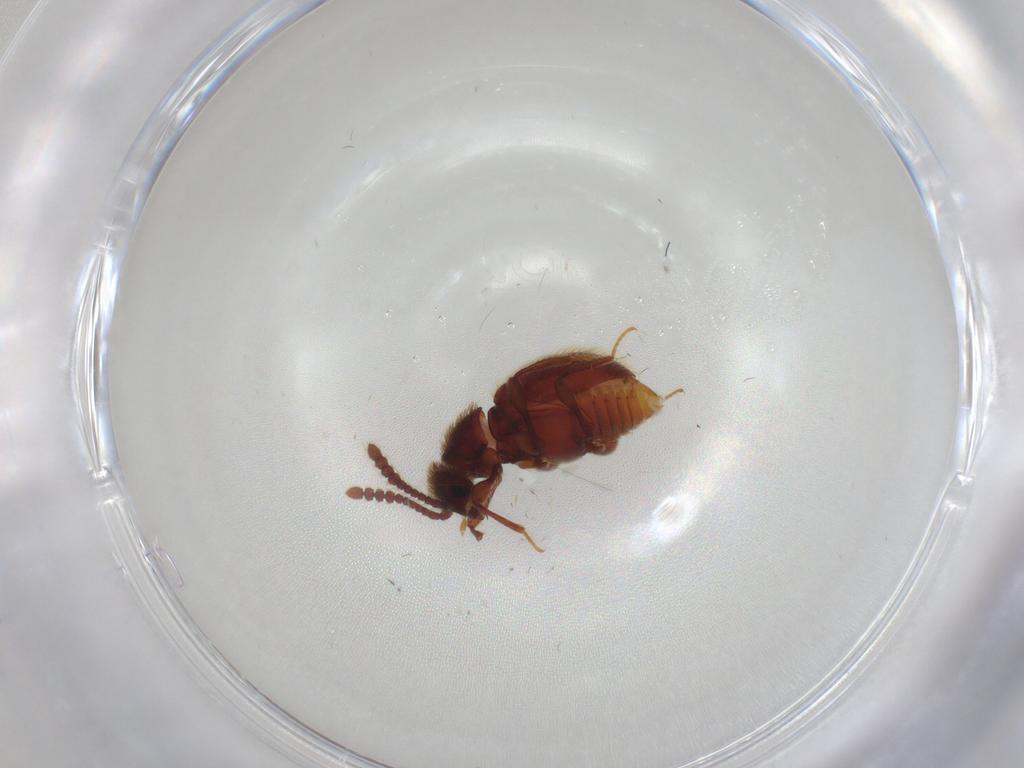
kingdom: Animalia
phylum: Arthropoda
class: Insecta
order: Coleoptera
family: Staphylinidae
